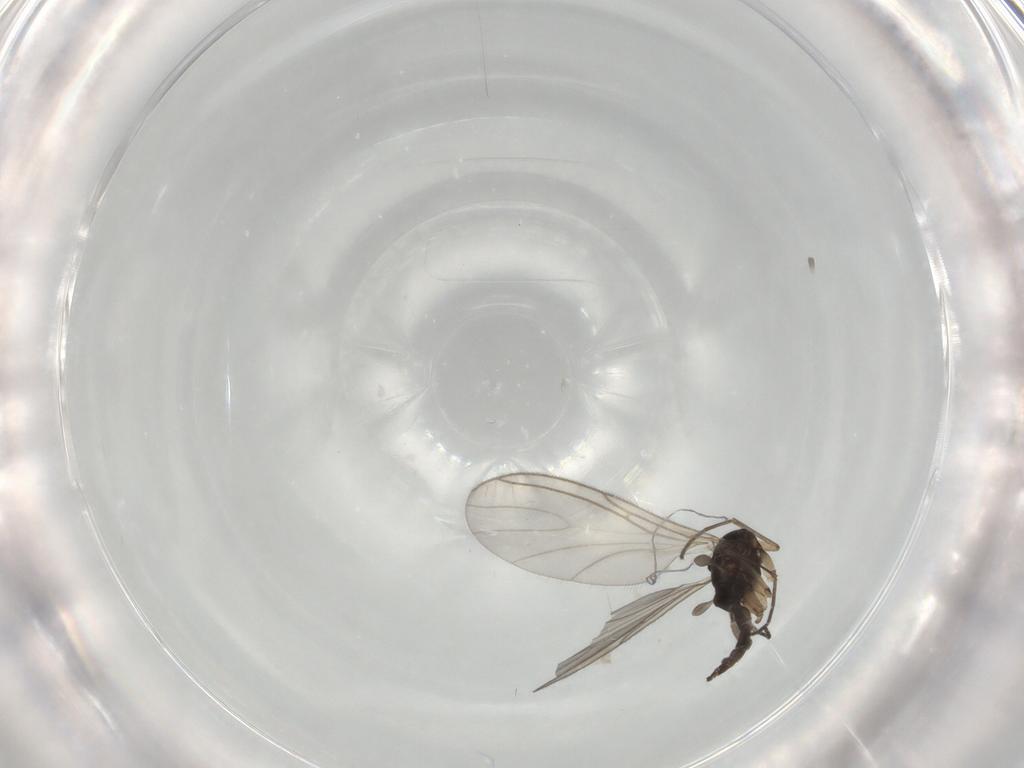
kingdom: Animalia
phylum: Arthropoda
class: Insecta
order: Diptera
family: Sciaridae
